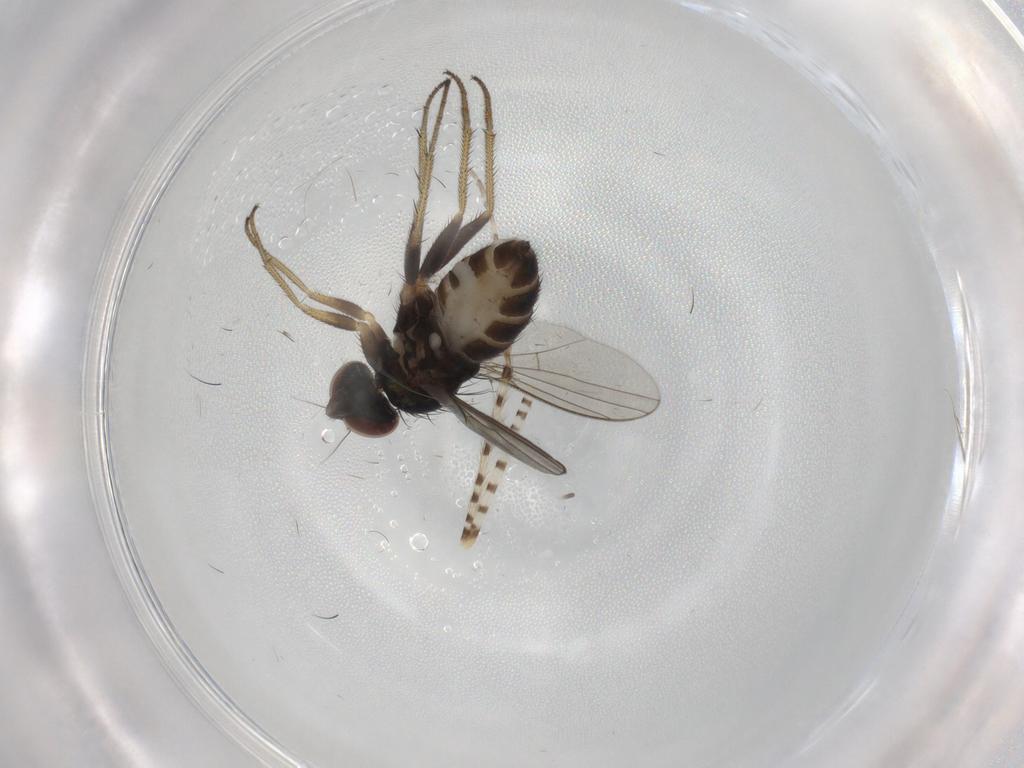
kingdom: Animalia
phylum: Arthropoda
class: Insecta
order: Diptera
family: Chironomidae
